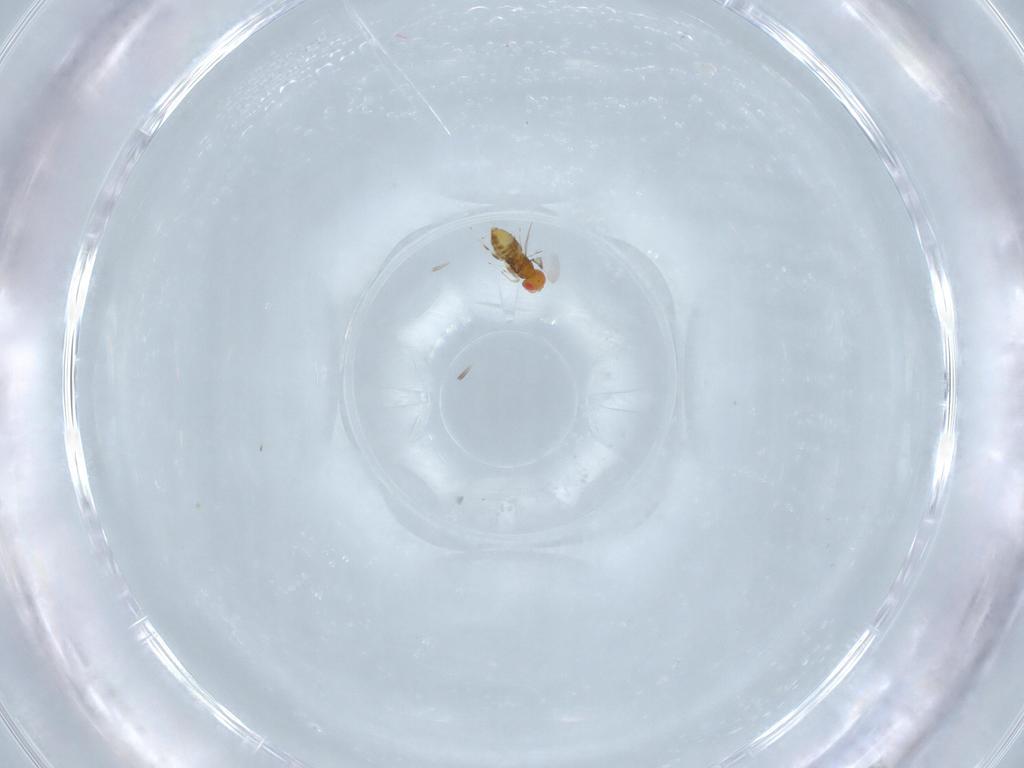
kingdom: Animalia
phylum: Arthropoda
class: Insecta
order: Hymenoptera
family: Trichogrammatidae
